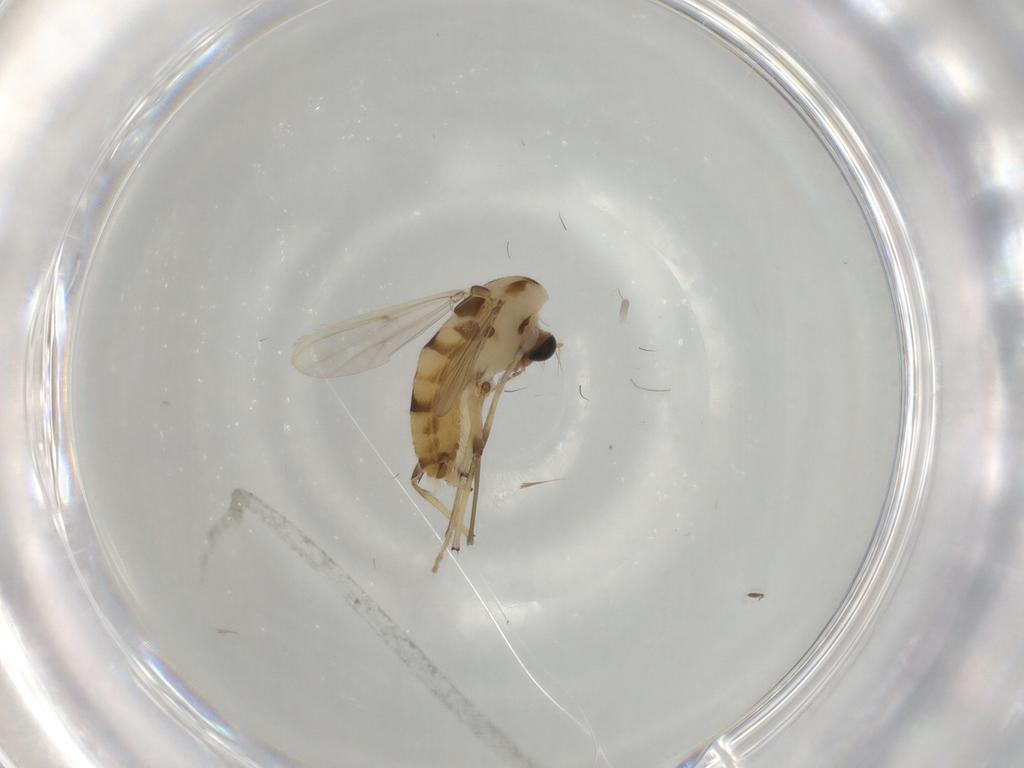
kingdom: Animalia
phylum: Arthropoda
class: Insecta
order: Diptera
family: Chironomidae
